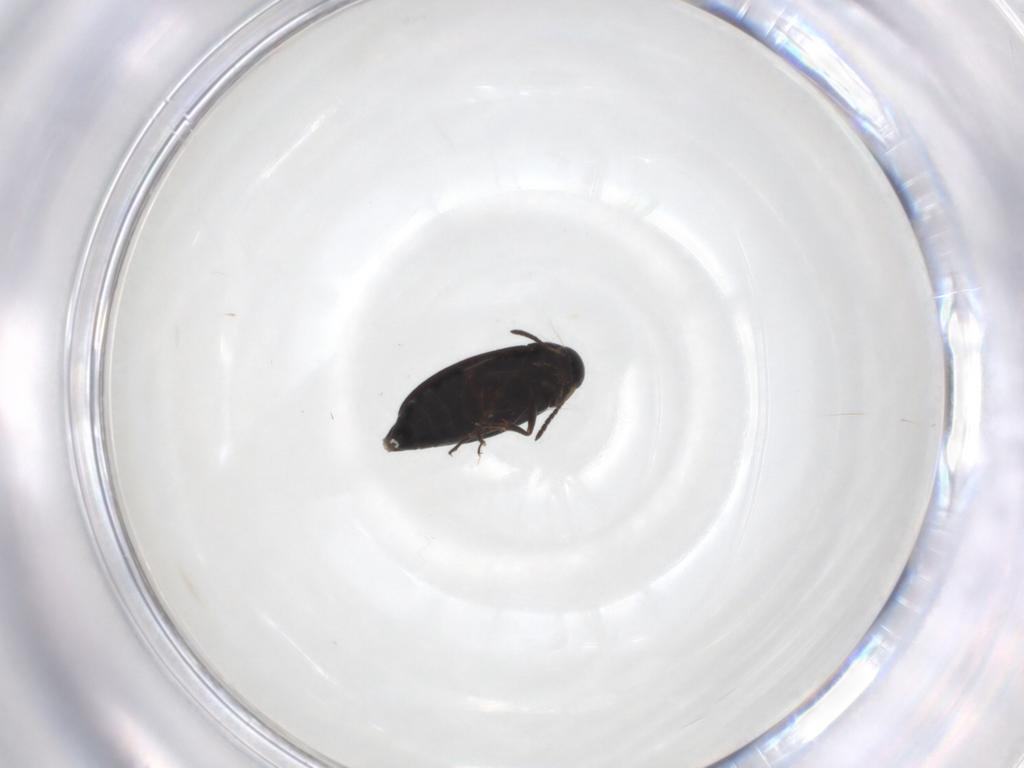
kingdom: Animalia
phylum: Arthropoda
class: Insecta
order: Coleoptera
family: Scraptiidae
